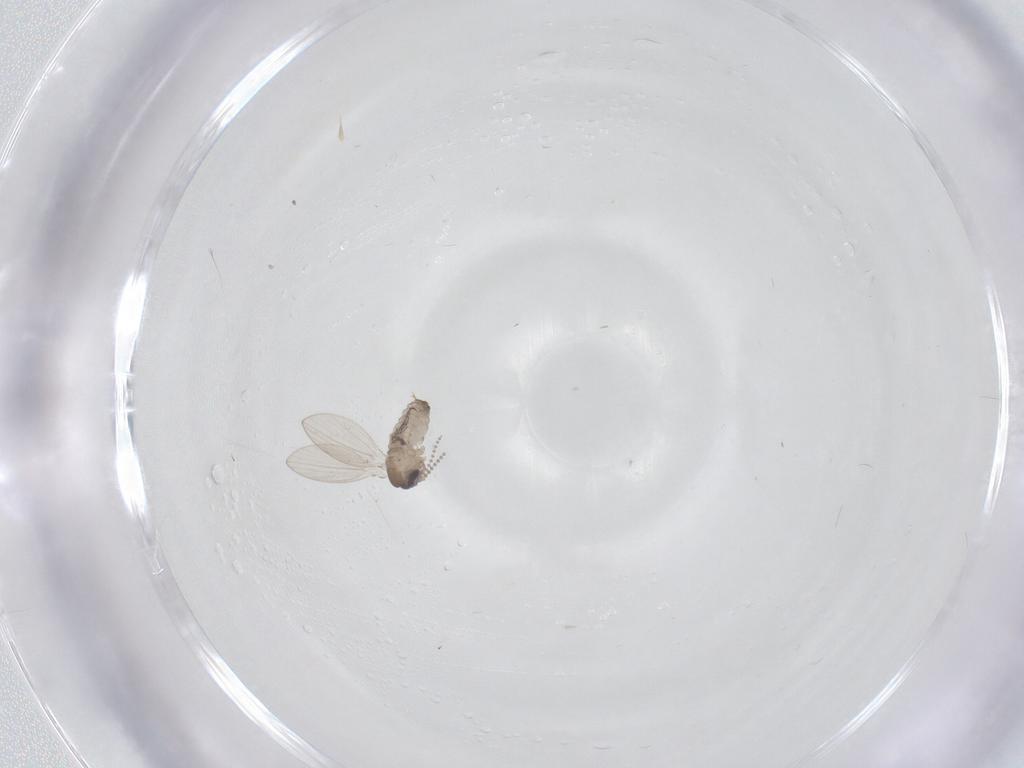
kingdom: Animalia
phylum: Arthropoda
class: Insecta
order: Diptera
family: Psychodidae
